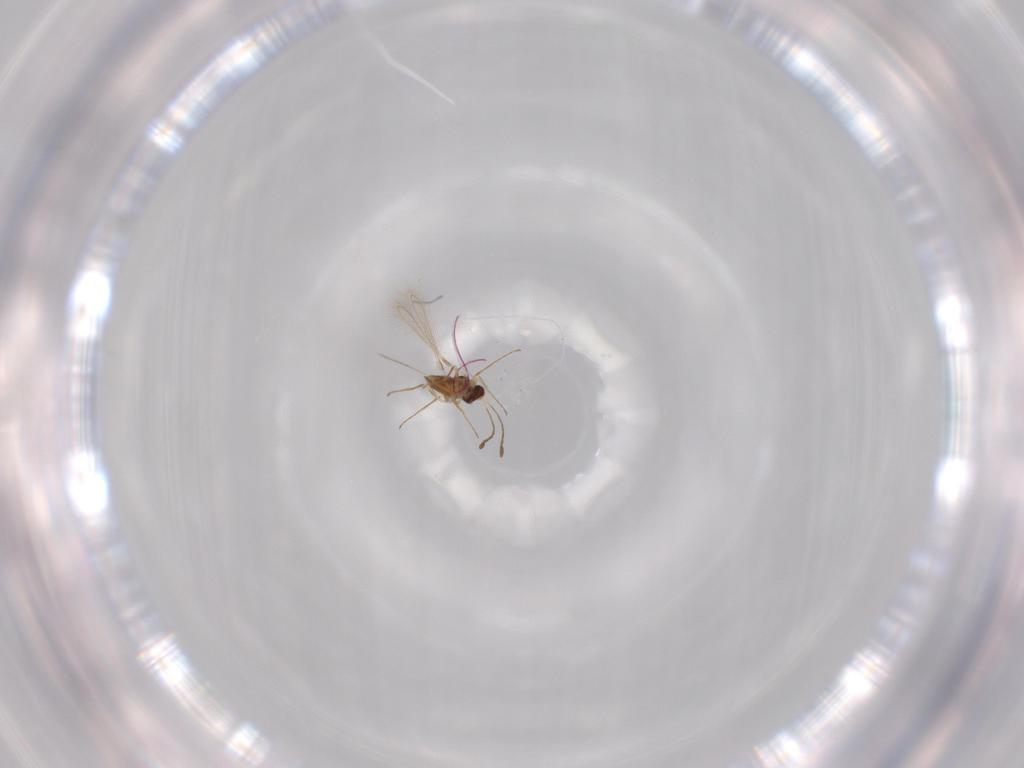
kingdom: Animalia
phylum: Arthropoda
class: Insecta
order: Hymenoptera
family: Mymaridae
